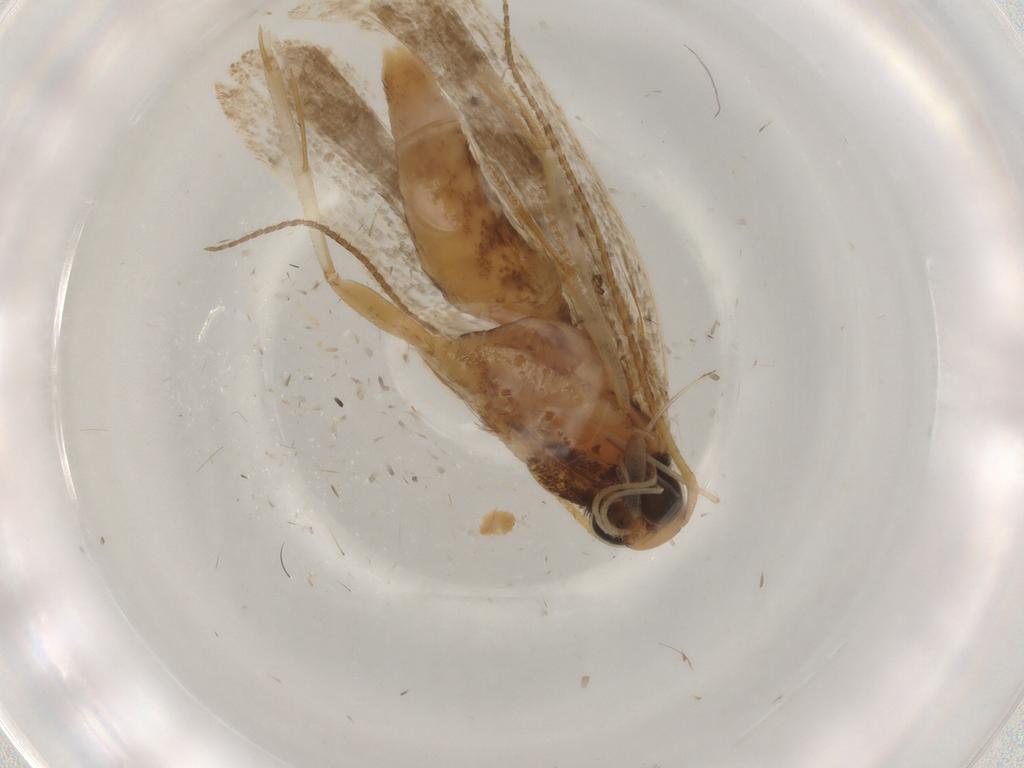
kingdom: Animalia
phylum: Arthropoda
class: Insecta
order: Lepidoptera
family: Gelechiidae
